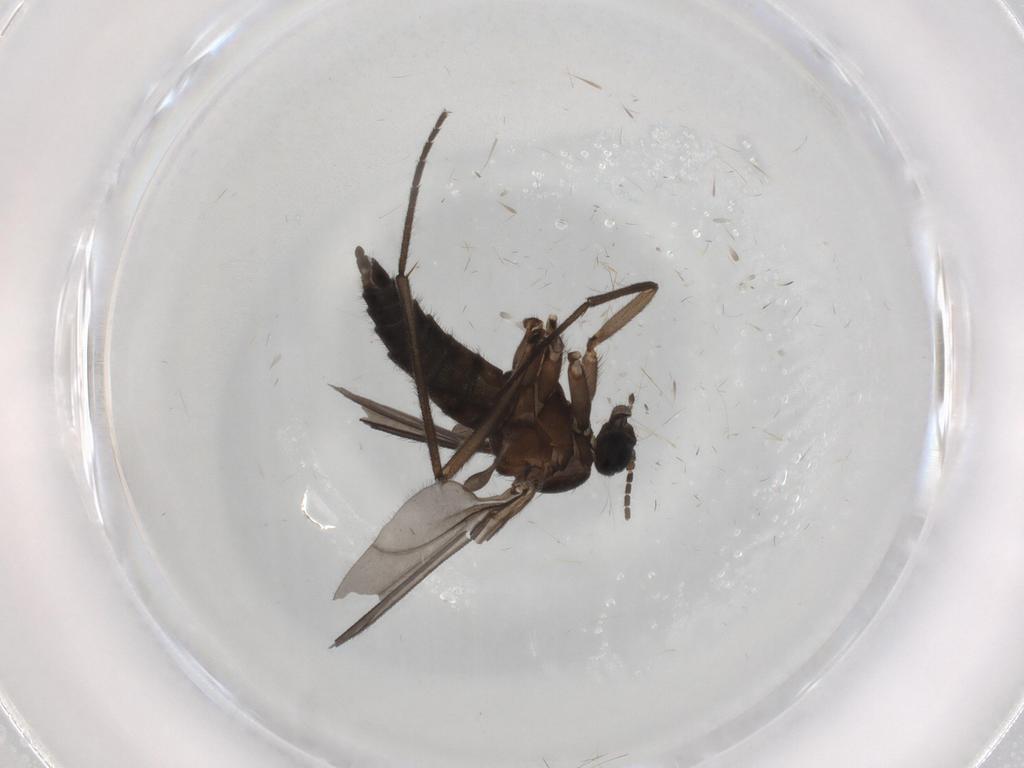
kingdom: Animalia
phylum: Arthropoda
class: Insecta
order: Diptera
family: Sciaridae
